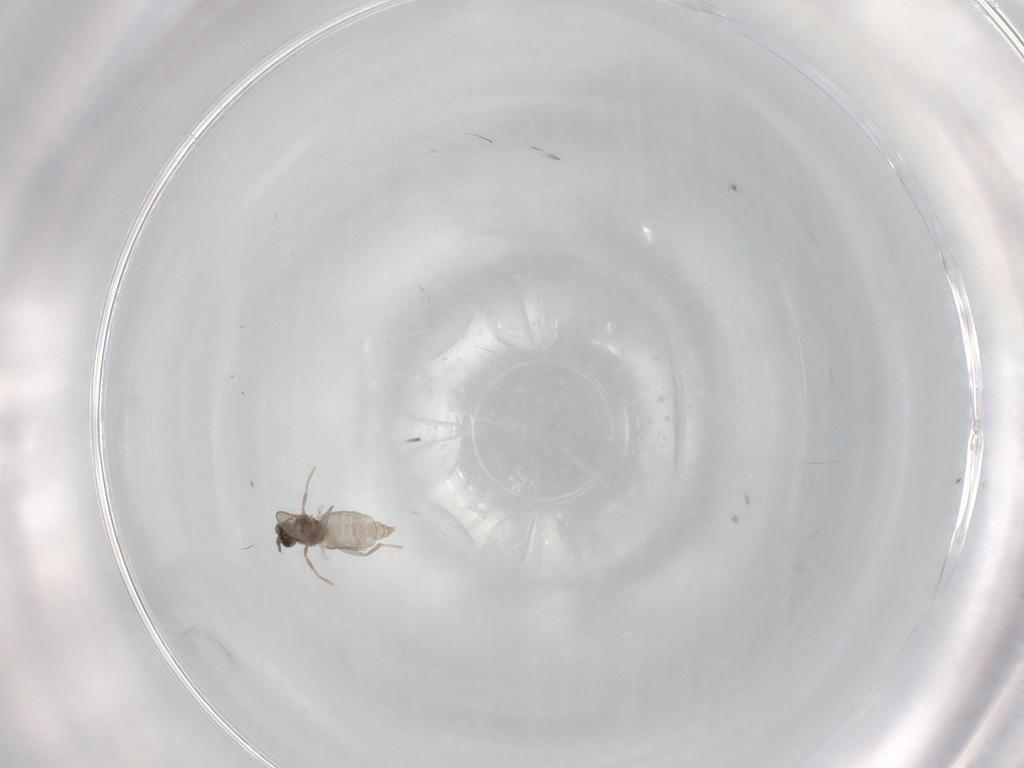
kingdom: Animalia
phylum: Arthropoda
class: Insecta
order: Diptera
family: Cecidomyiidae
